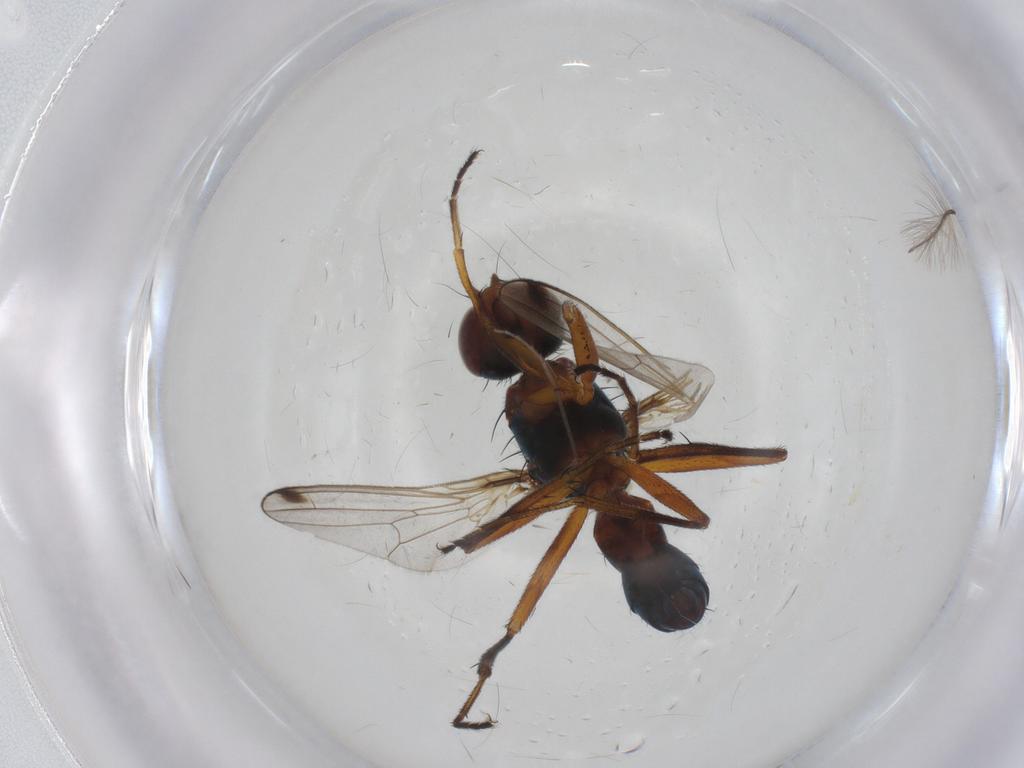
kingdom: Animalia
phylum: Arthropoda
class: Insecta
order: Diptera
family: Sepsidae
